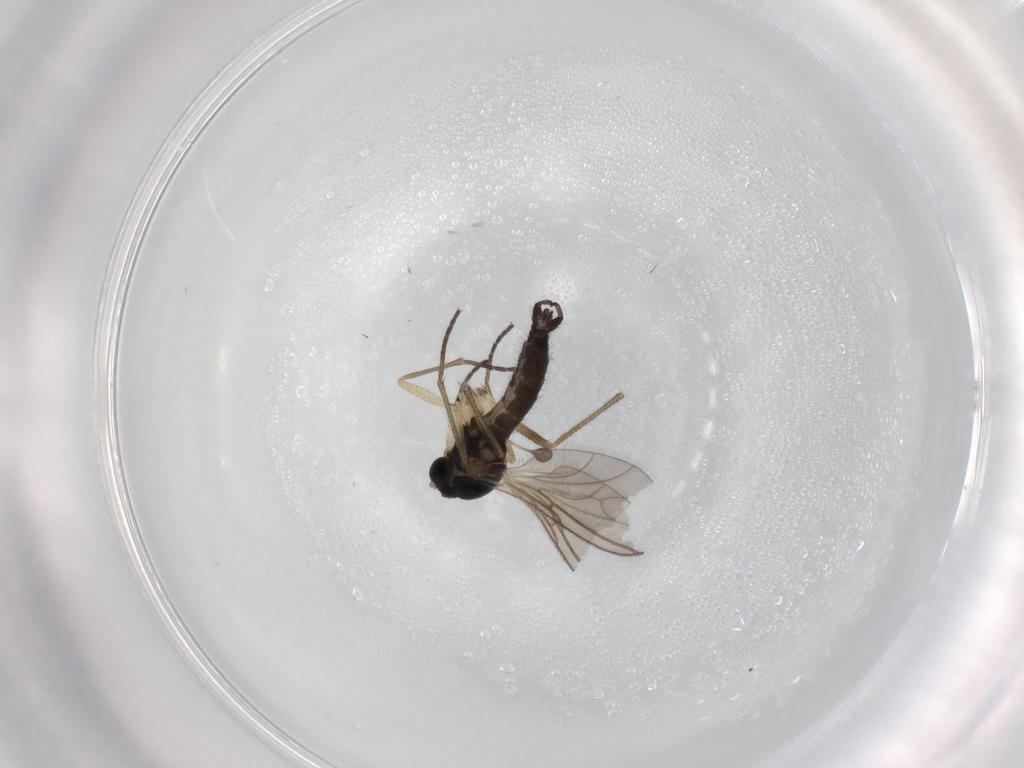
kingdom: Animalia
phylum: Arthropoda
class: Insecta
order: Diptera
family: Sciaridae
